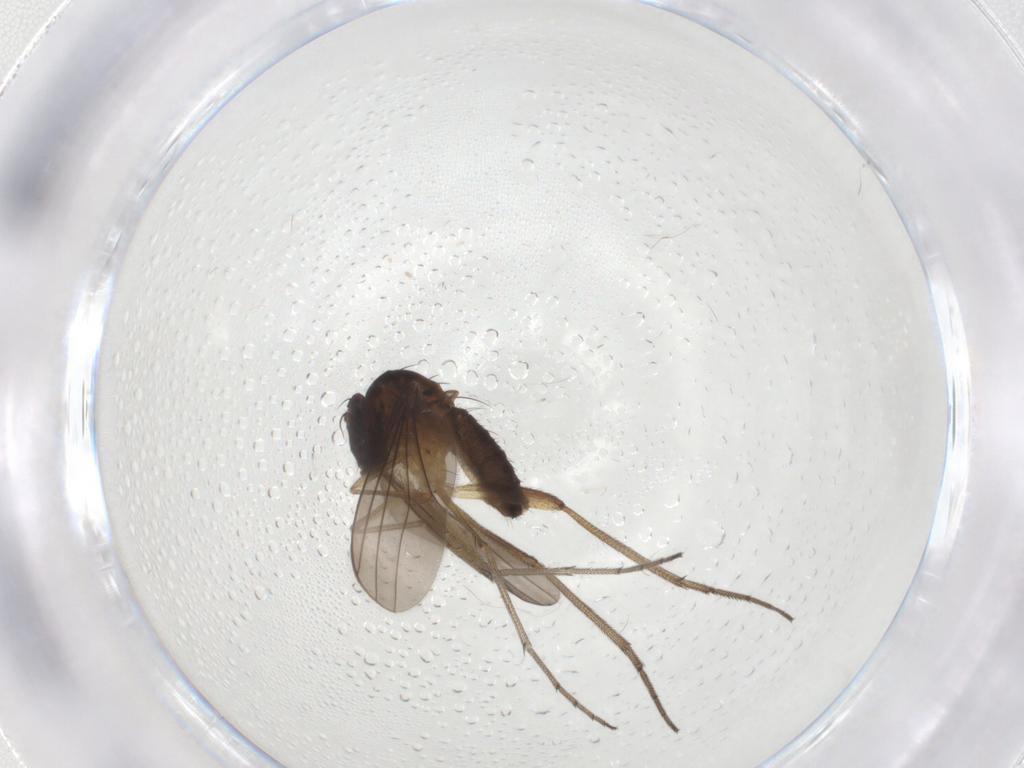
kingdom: Animalia
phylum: Arthropoda
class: Insecta
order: Diptera
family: Dolichopodidae
